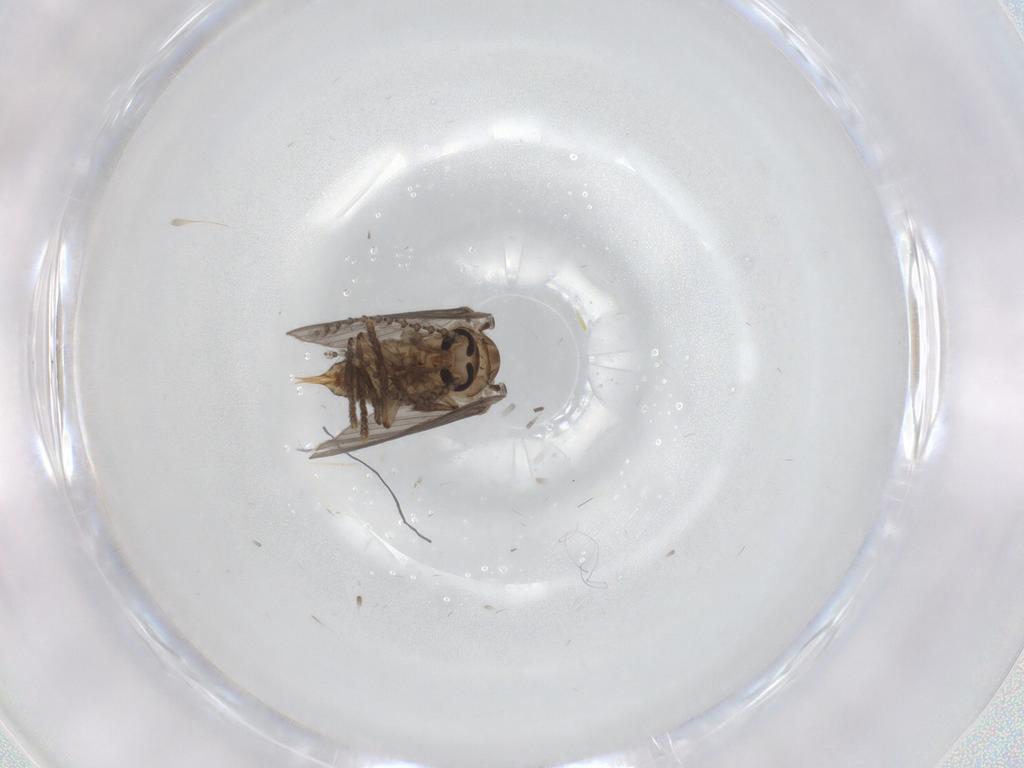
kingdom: Animalia
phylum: Arthropoda
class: Insecta
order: Diptera
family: Psychodidae
